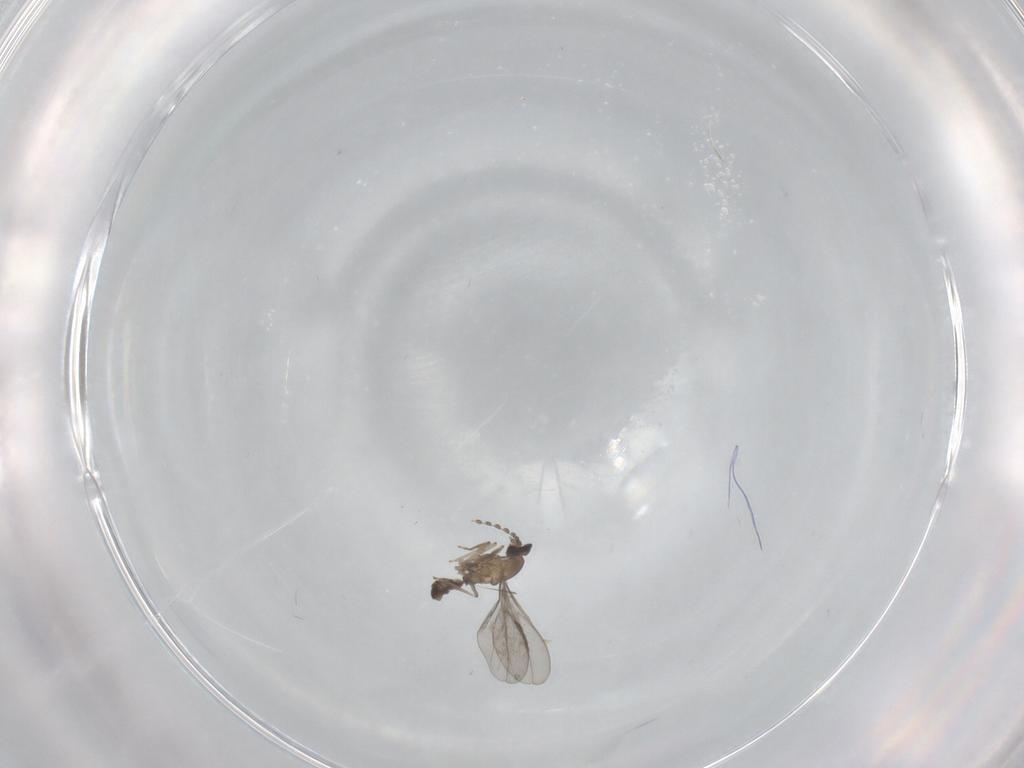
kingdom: Animalia
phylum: Arthropoda
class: Insecta
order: Diptera
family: Cecidomyiidae
